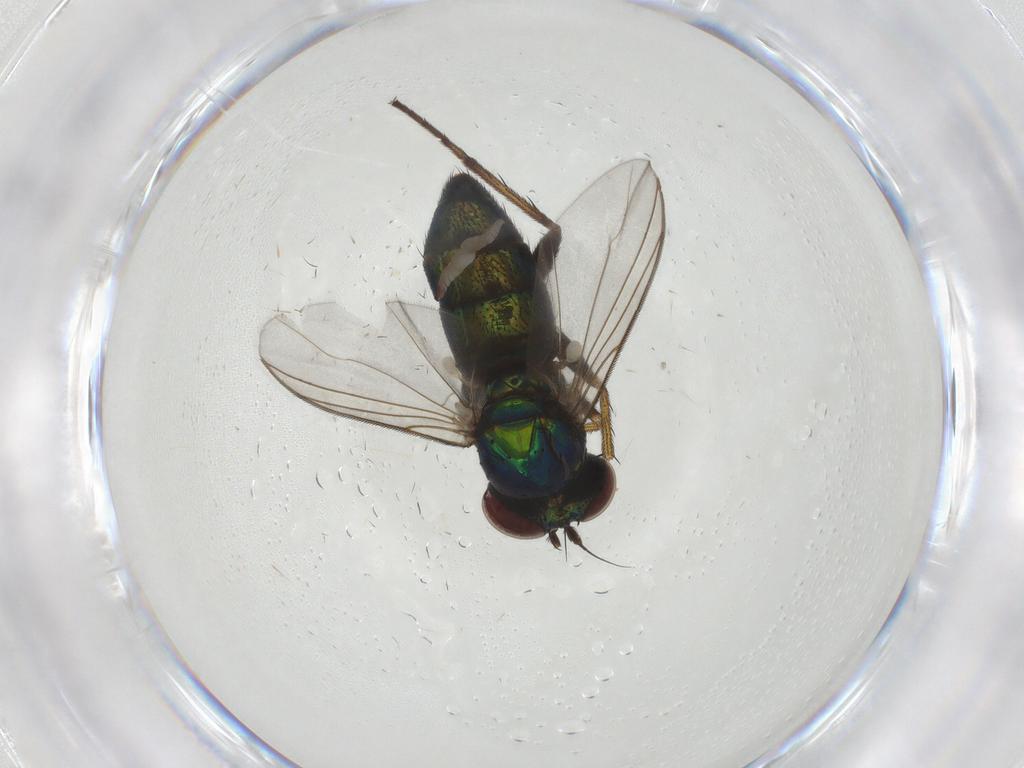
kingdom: Animalia
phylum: Arthropoda
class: Insecta
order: Diptera
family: Dolichopodidae
